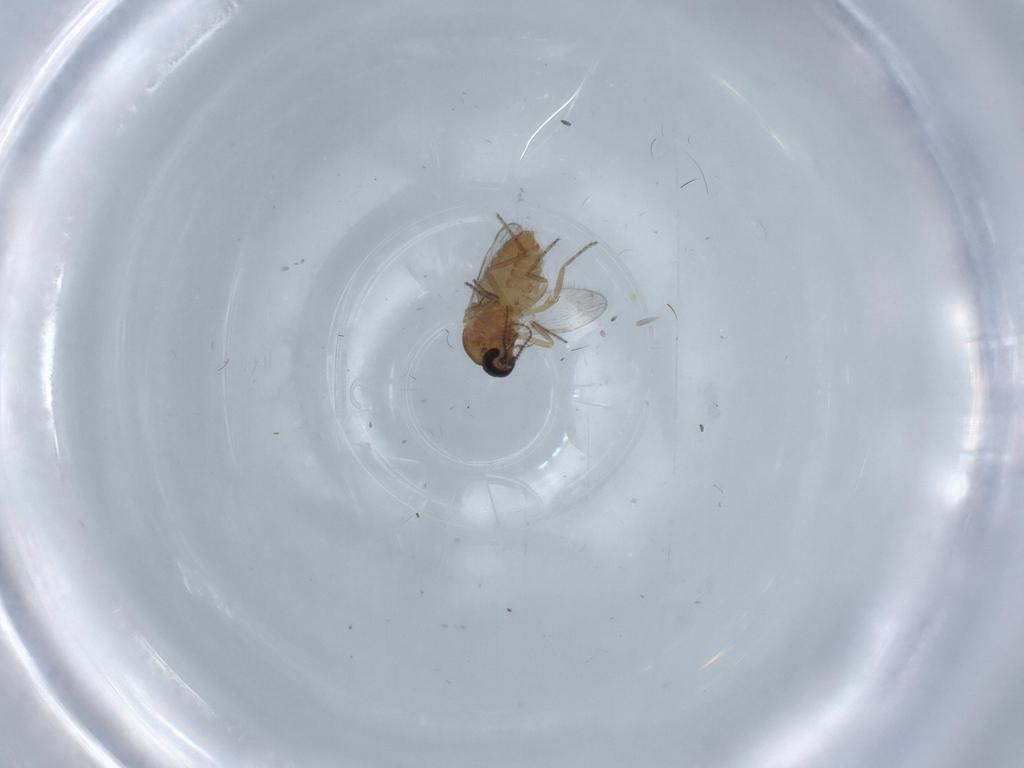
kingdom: Animalia
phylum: Arthropoda
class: Insecta
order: Diptera
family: Ceratopogonidae
